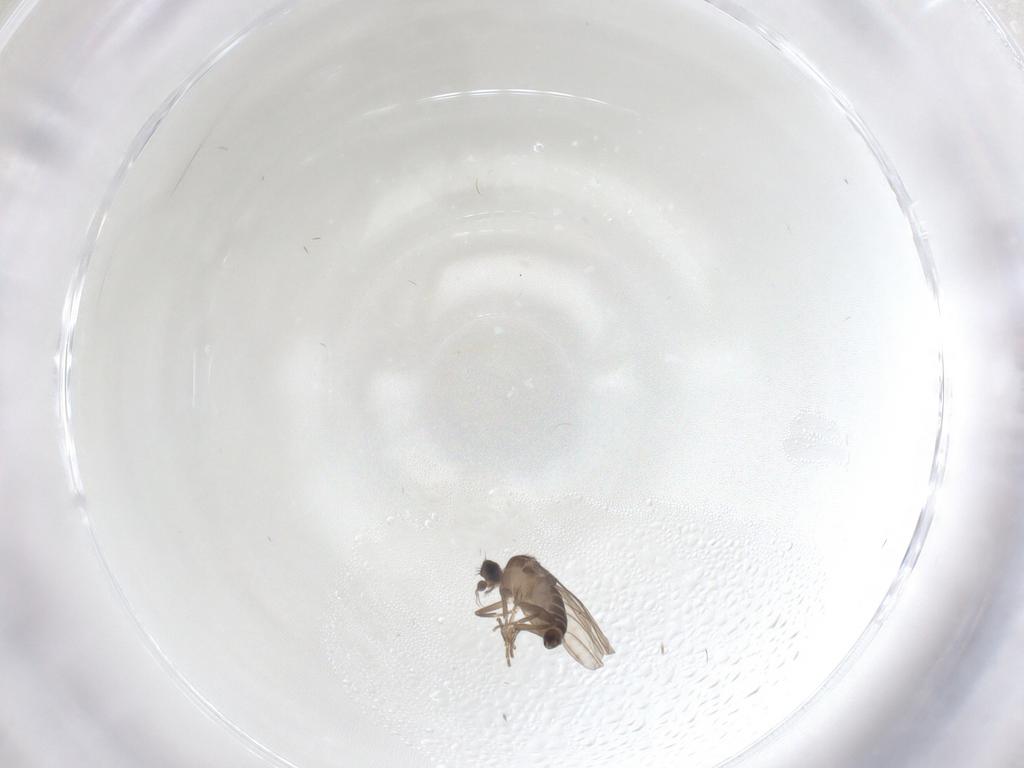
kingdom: Animalia
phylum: Arthropoda
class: Insecta
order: Diptera
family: Phoridae
